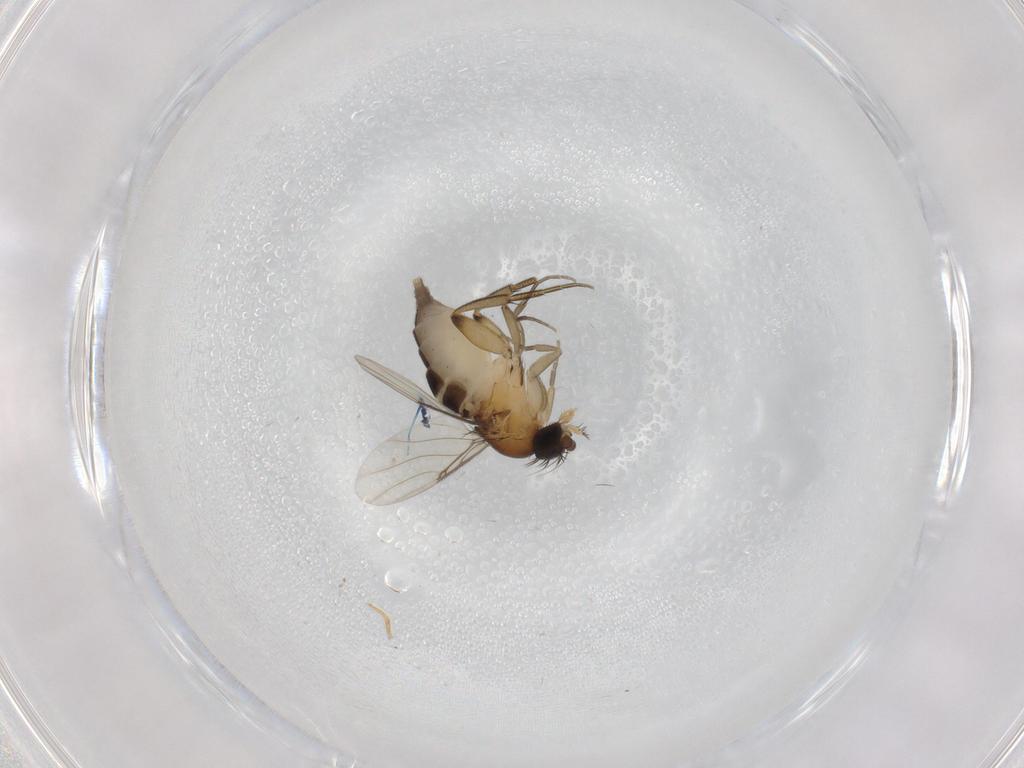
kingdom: Animalia
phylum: Arthropoda
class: Insecta
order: Diptera
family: Phoridae
